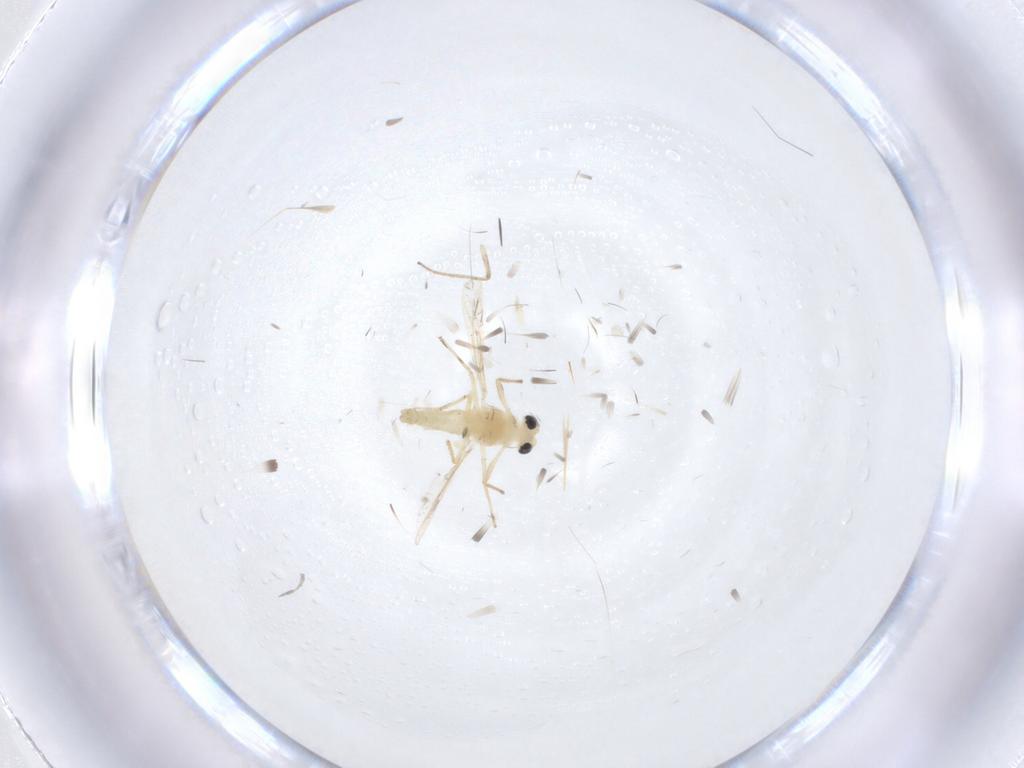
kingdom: Animalia
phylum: Arthropoda
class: Insecta
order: Diptera
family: Chironomidae
